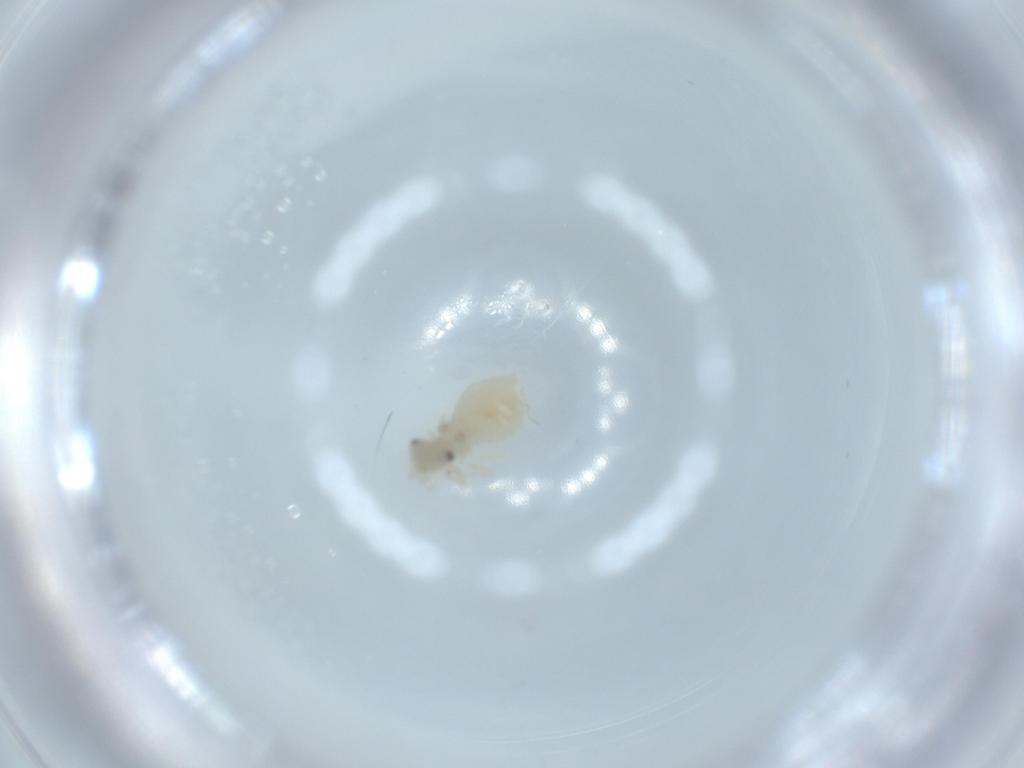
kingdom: Animalia
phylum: Arthropoda
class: Insecta
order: Psocodea
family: Caeciliusidae
